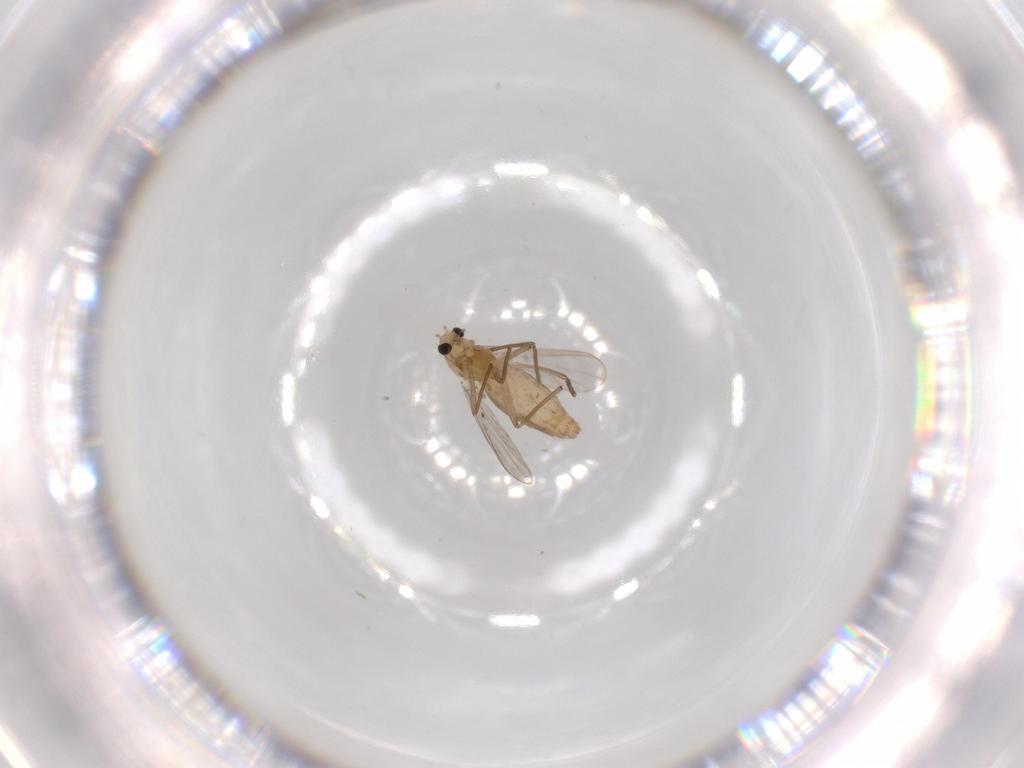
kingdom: Animalia
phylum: Arthropoda
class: Insecta
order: Diptera
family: Chironomidae
